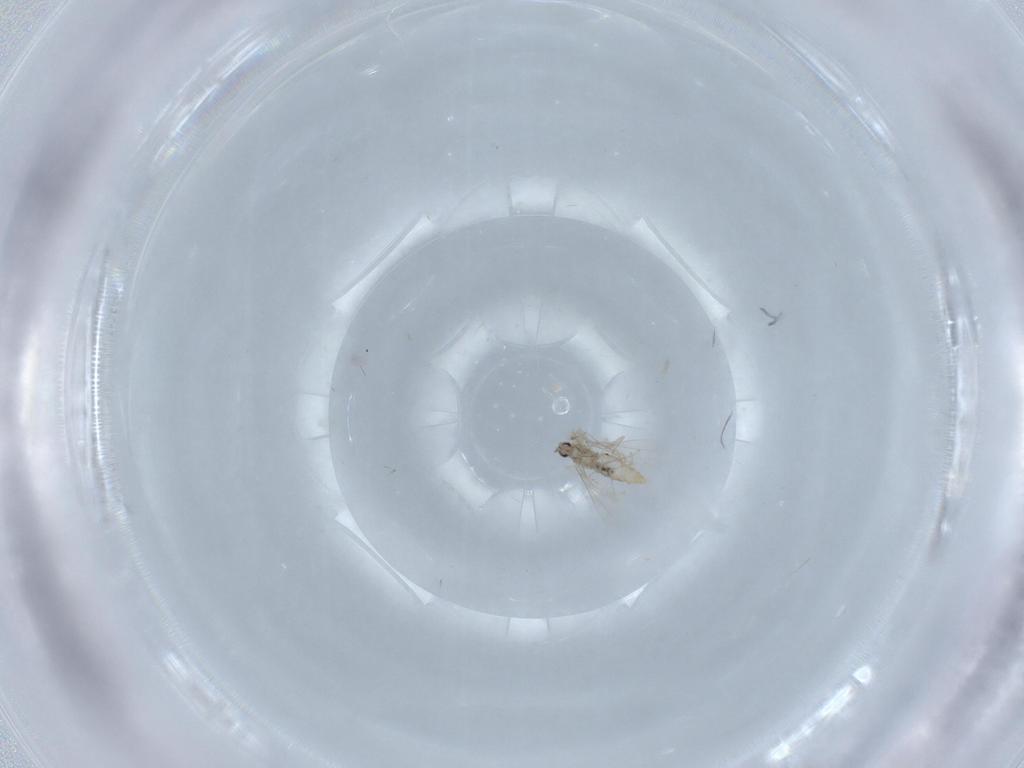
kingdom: Animalia
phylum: Arthropoda
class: Insecta
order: Diptera
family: Cecidomyiidae
